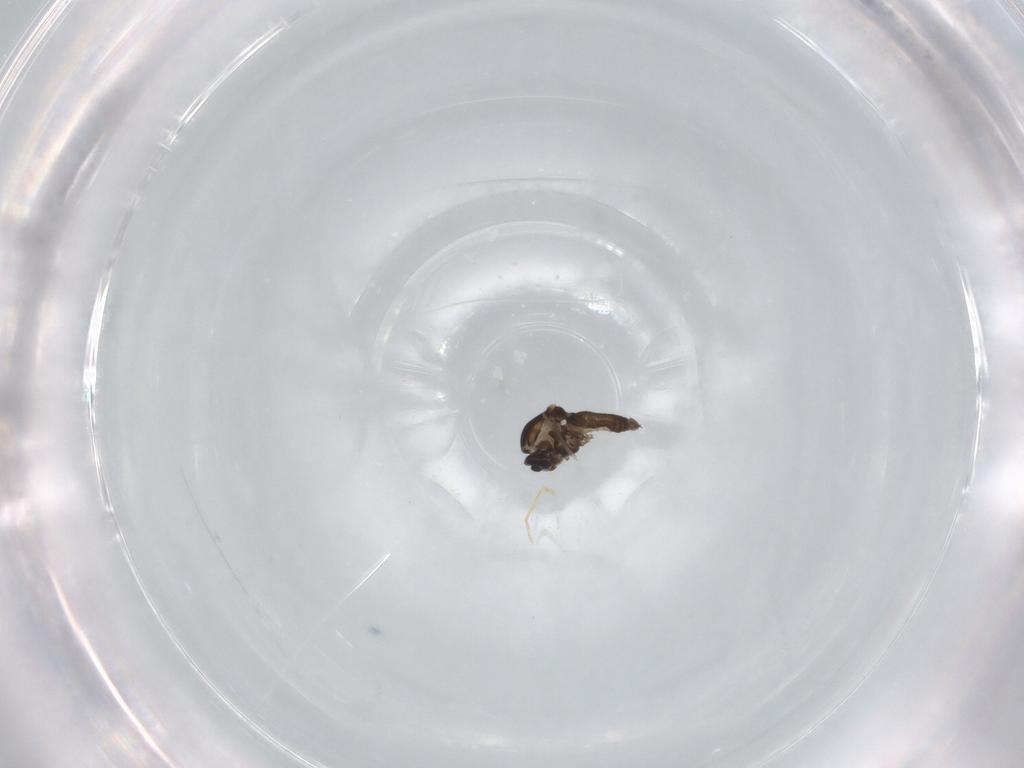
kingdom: Animalia
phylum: Arthropoda
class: Insecta
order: Diptera
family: Ceratopogonidae
